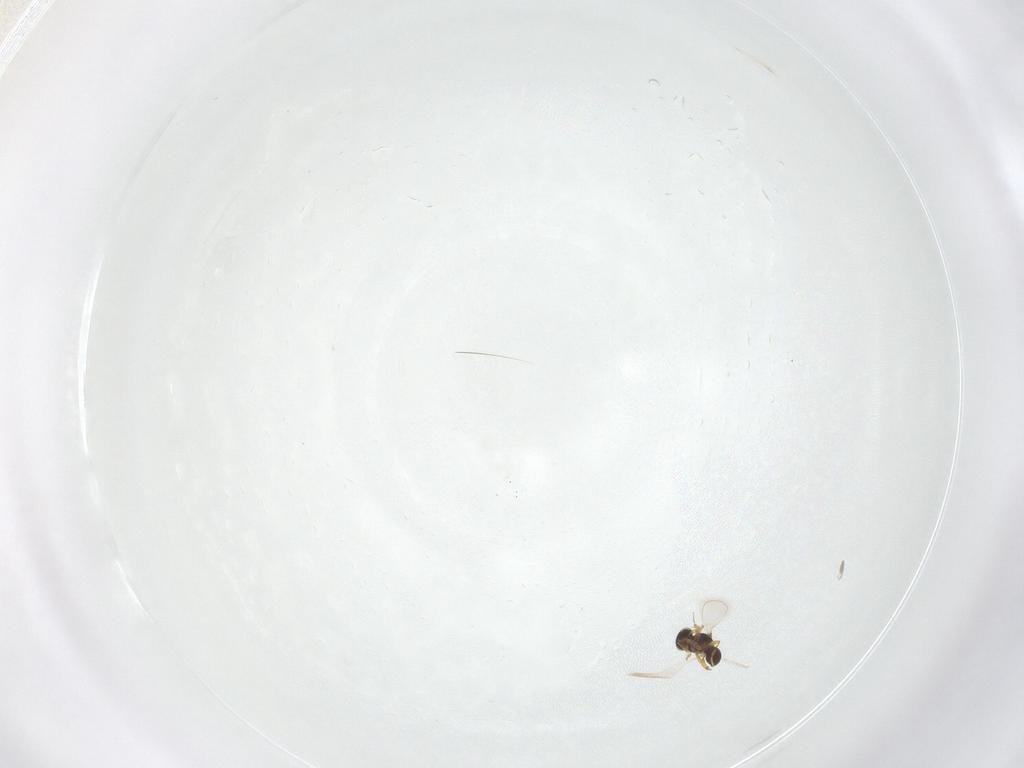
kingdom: Animalia
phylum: Arthropoda
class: Insecta
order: Hymenoptera
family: Platygastridae
